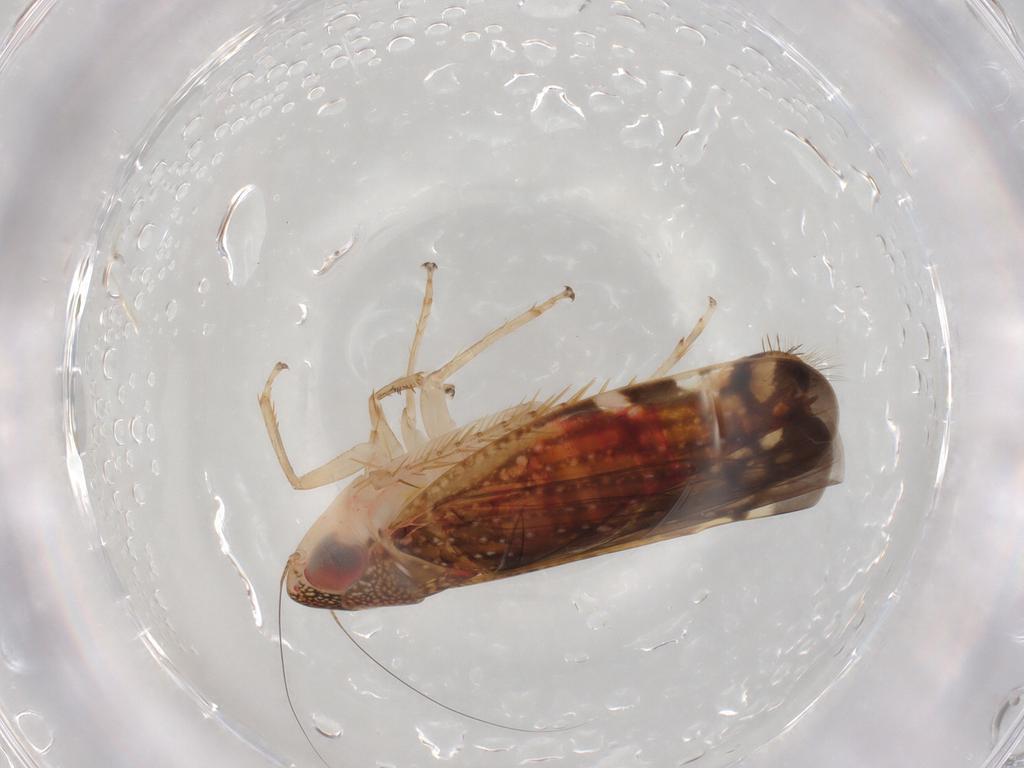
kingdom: Animalia
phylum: Arthropoda
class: Insecta
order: Hemiptera
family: Cicadellidae
